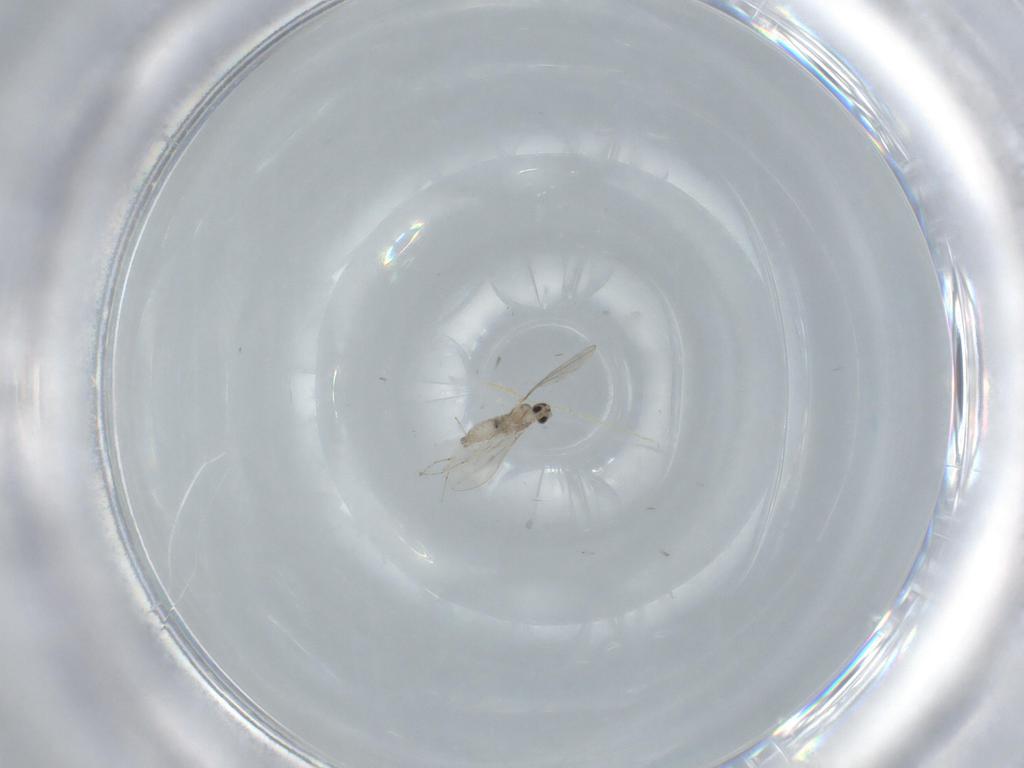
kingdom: Animalia
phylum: Arthropoda
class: Insecta
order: Diptera
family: Cecidomyiidae
